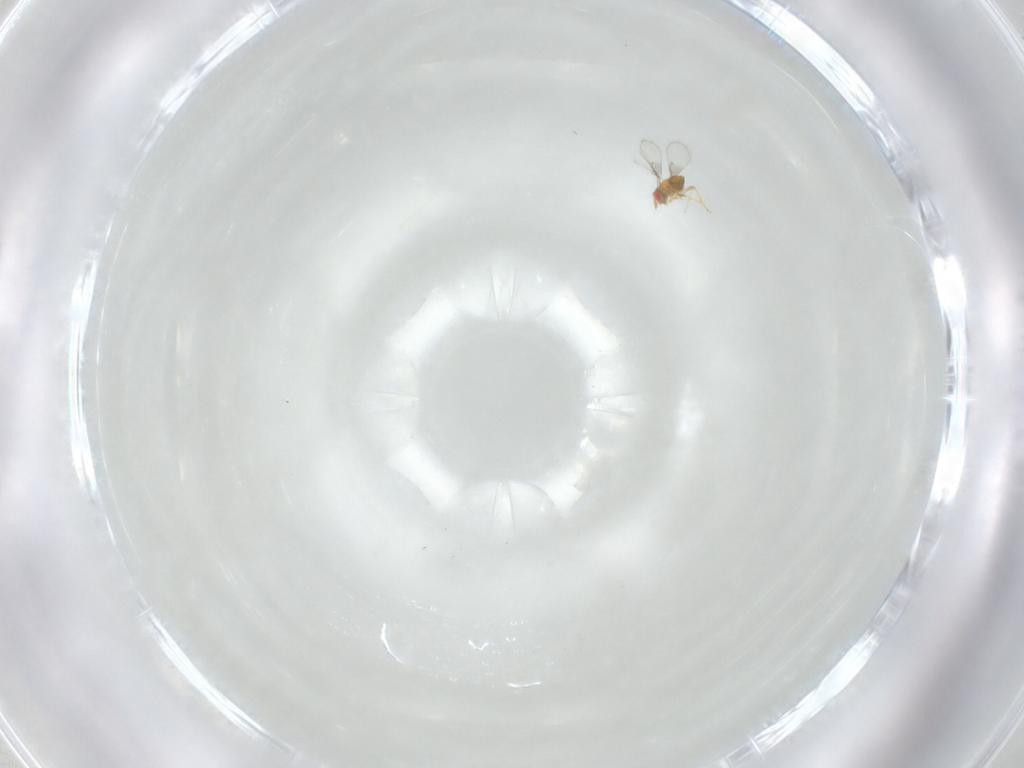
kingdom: Animalia
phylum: Arthropoda
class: Insecta
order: Hymenoptera
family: Trichogrammatidae
